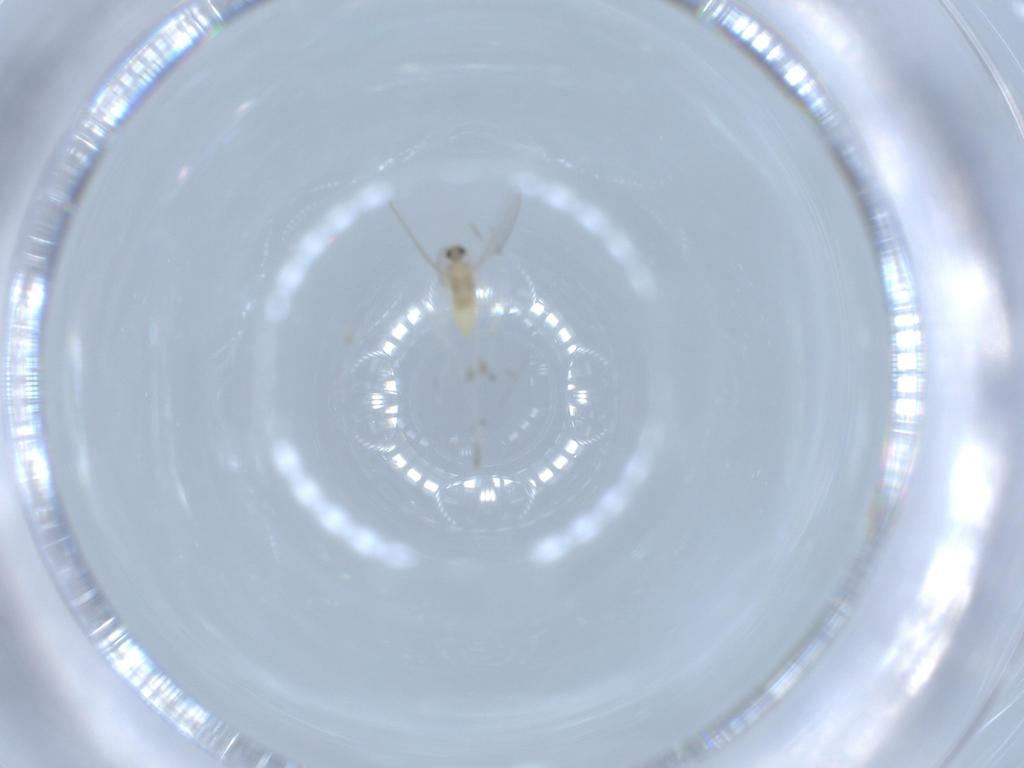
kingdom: Animalia
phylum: Arthropoda
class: Insecta
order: Diptera
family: Cecidomyiidae
